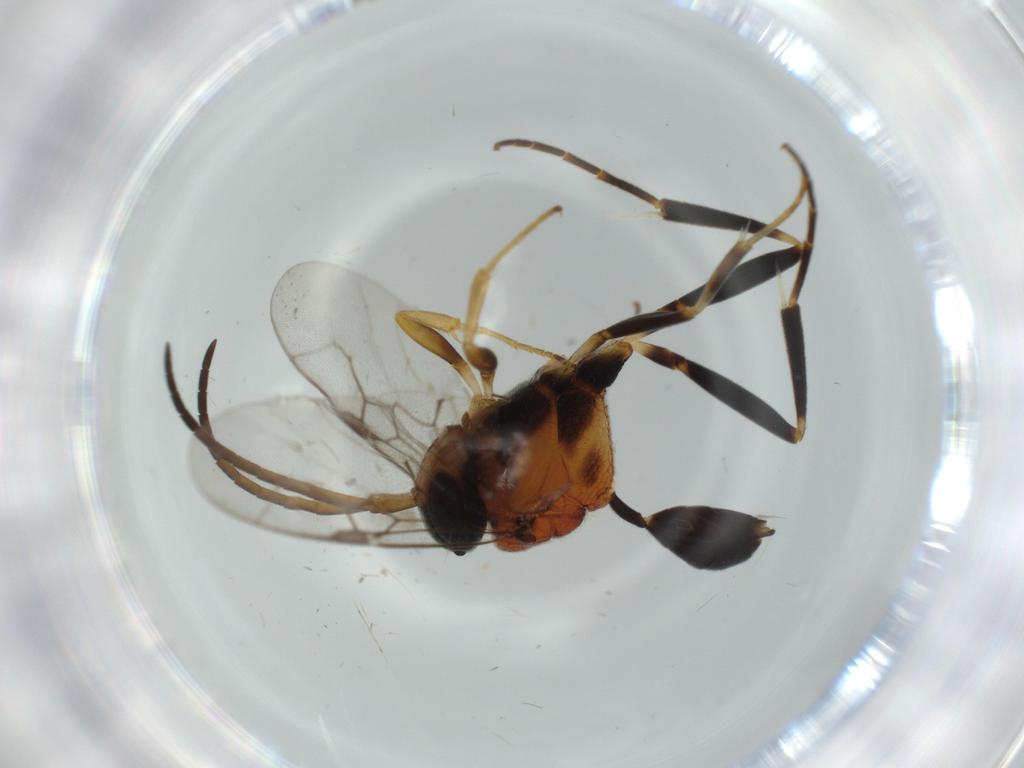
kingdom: Animalia
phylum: Arthropoda
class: Insecta
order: Hymenoptera
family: Evaniidae
